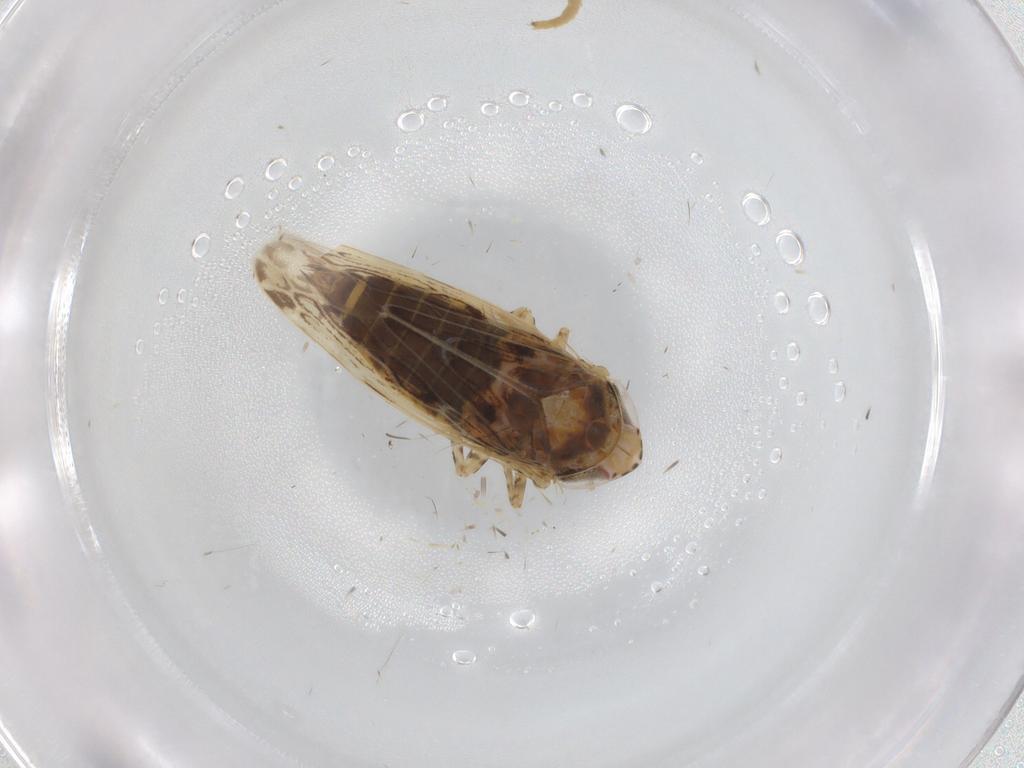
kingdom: Animalia
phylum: Arthropoda
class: Insecta
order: Hemiptera
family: Cicadellidae
